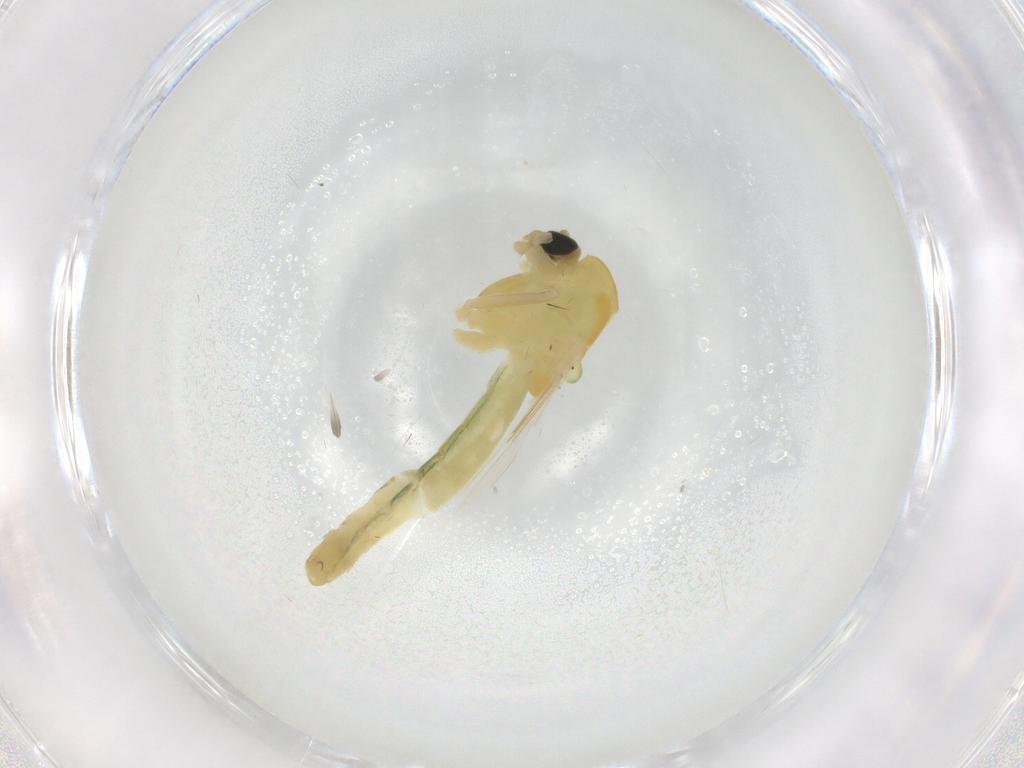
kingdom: Animalia
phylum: Arthropoda
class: Insecta
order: Diptera
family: Chironomidae
